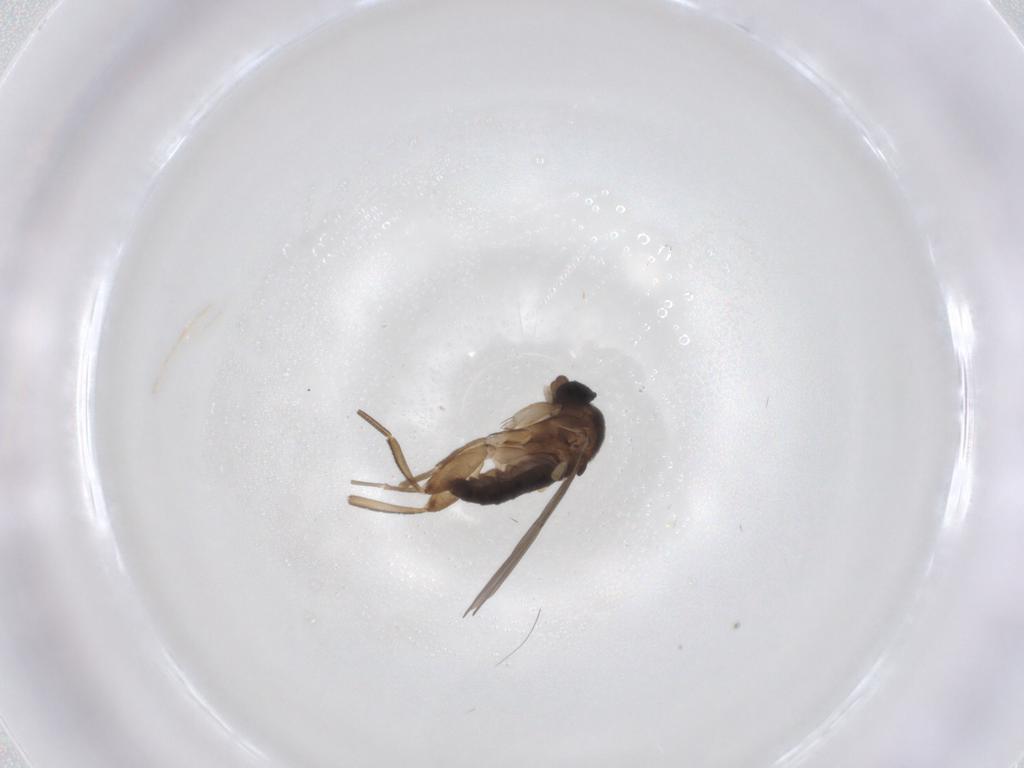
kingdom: Animalia
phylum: Arthropoda
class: Insecta
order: Diptera
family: Phoridae
